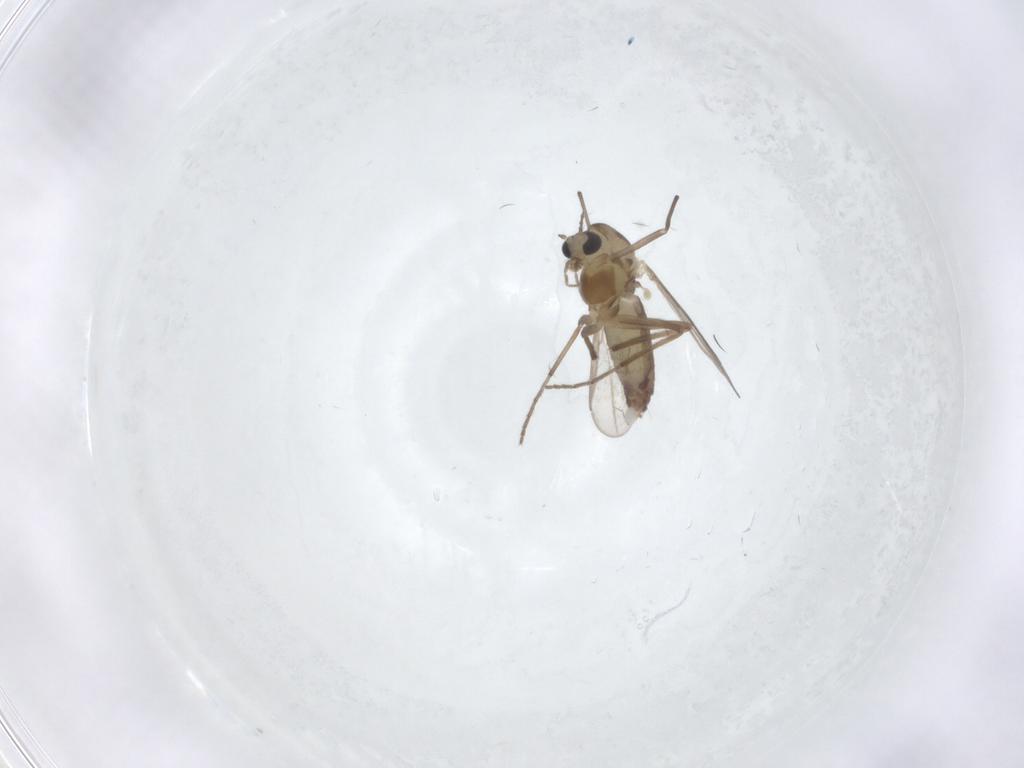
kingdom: Animalia
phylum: Arthropoda
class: Insecta
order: Diptera
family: Chironomidae
